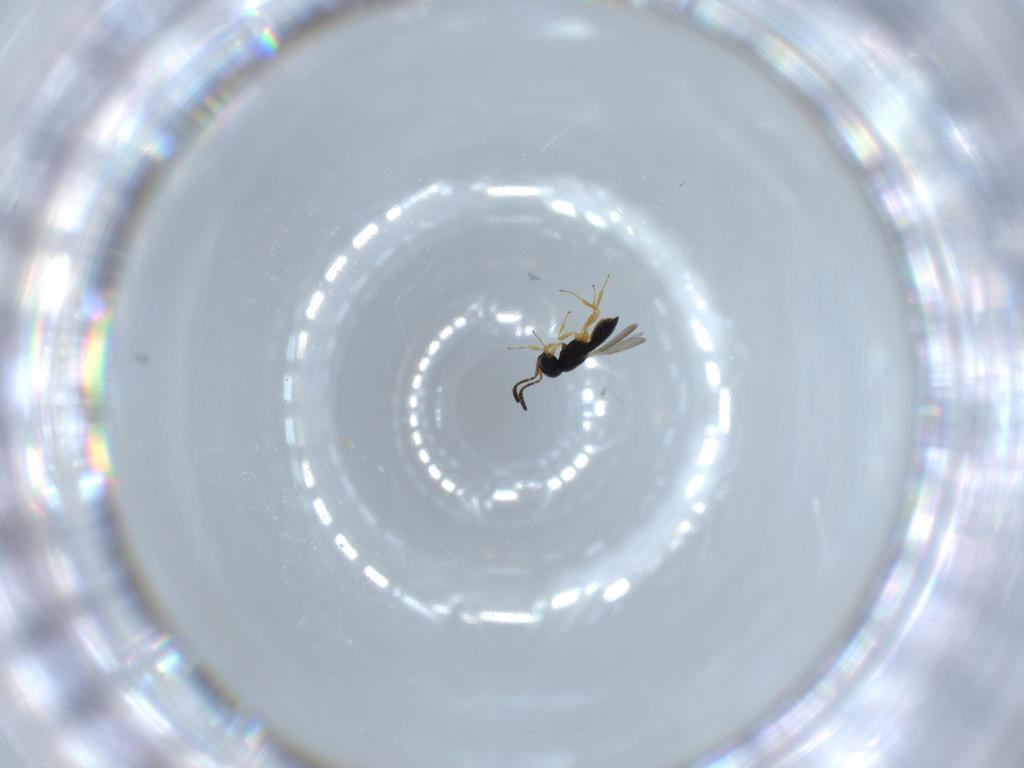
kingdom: Animalia
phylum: Arthropoda
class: Insecta
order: Hymenoptera
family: Scelionidae
